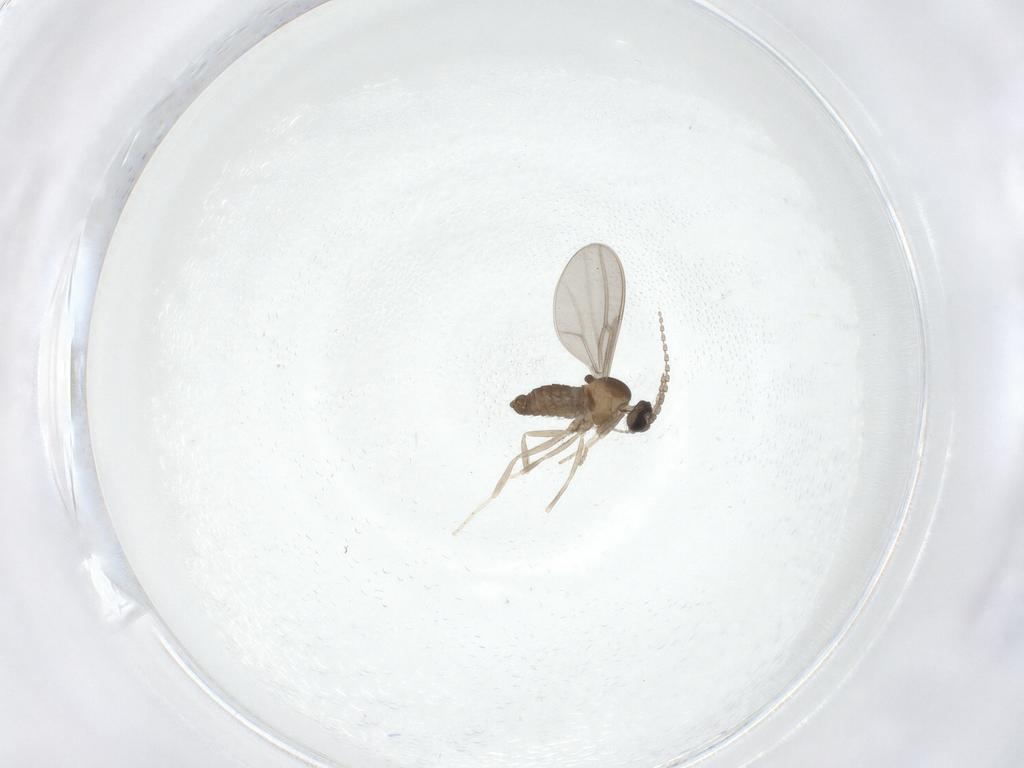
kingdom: Animalia
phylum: Arthropoda
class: Insecta
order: Diptera
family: Cecidomyiidae
